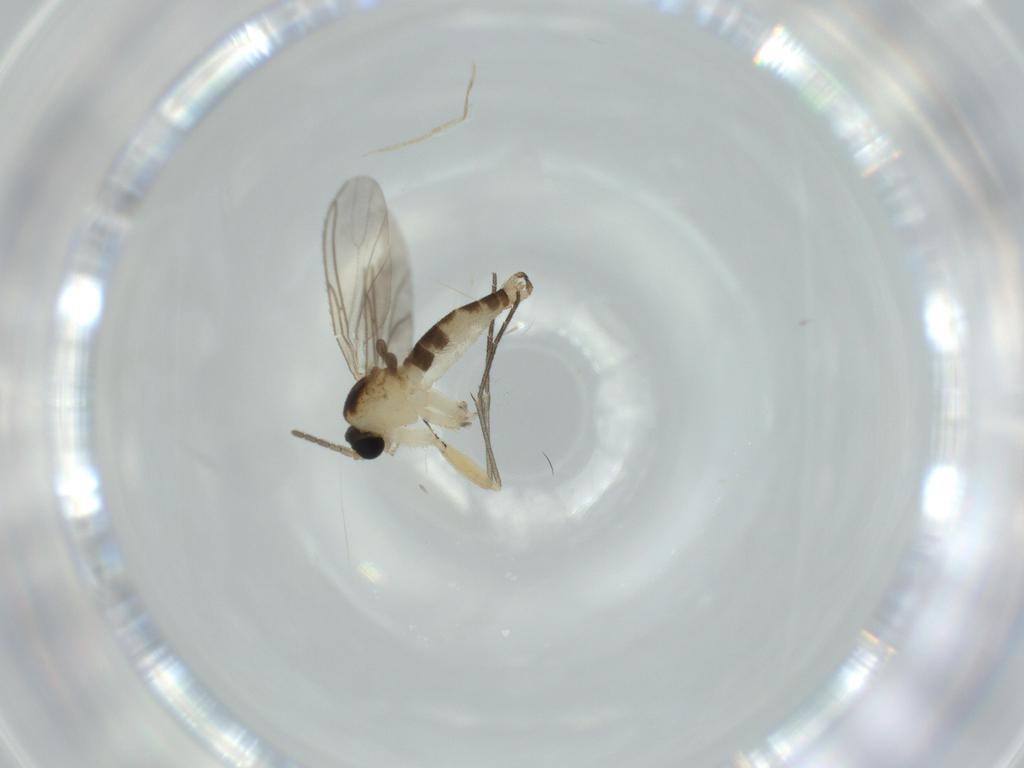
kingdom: Animalia
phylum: Arthropoda
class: Insecta
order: Diptera
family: Sciaridae
